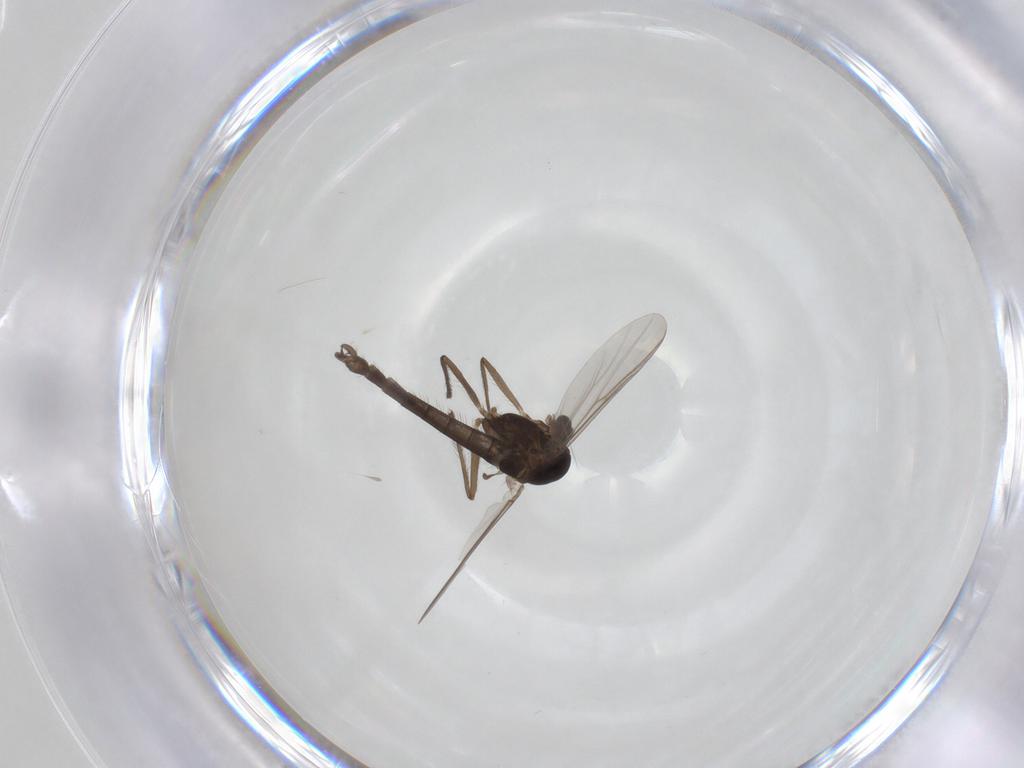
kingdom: Animalia
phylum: Arthropoda
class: Insecta
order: Diptera
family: Chironomidae
